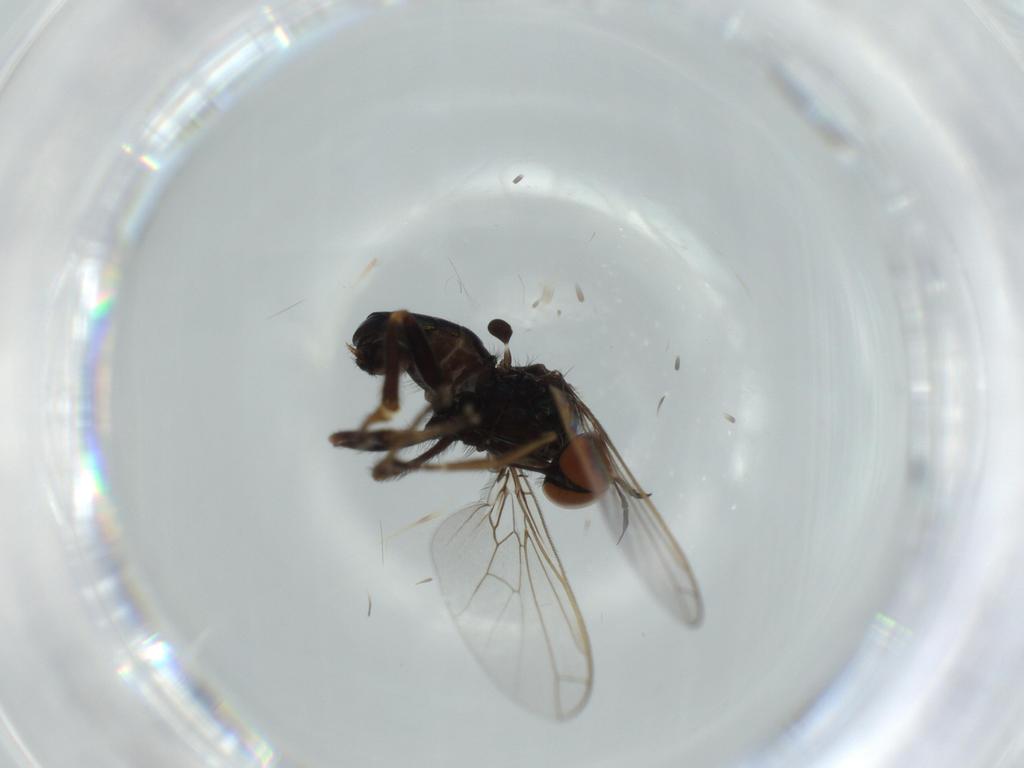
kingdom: Animalia
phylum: Arthropoda
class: Insecta
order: Diptera
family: Empididae
